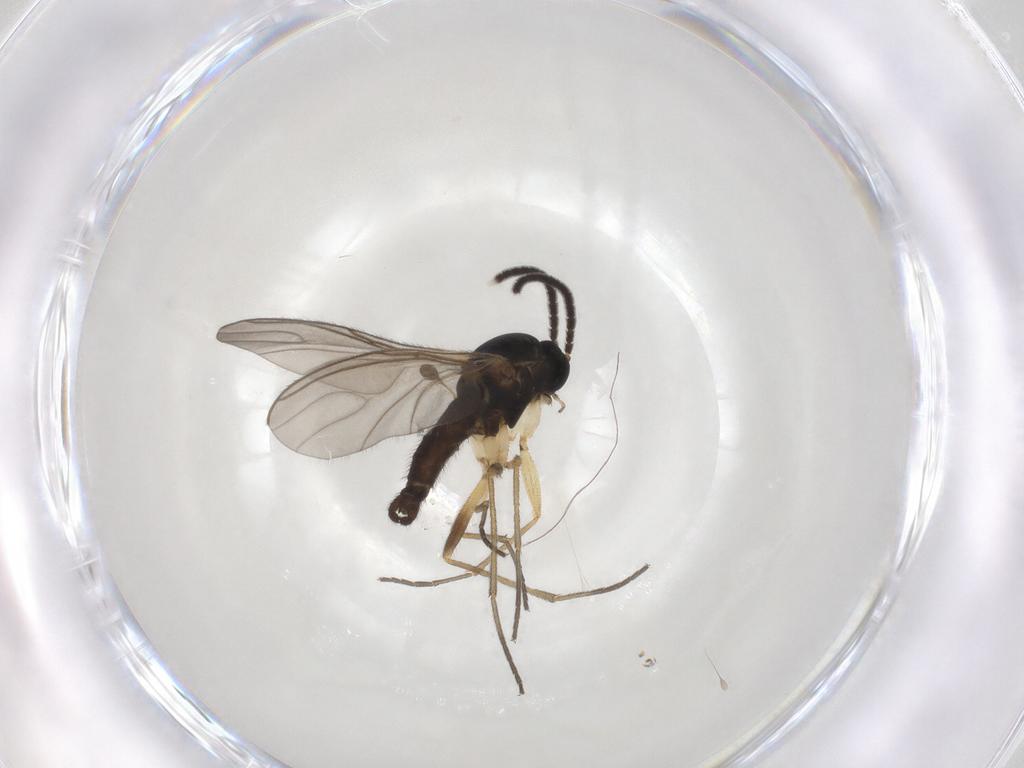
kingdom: Animalia
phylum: Arthropoda
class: Insecta
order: Diptera
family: Sciaridae
